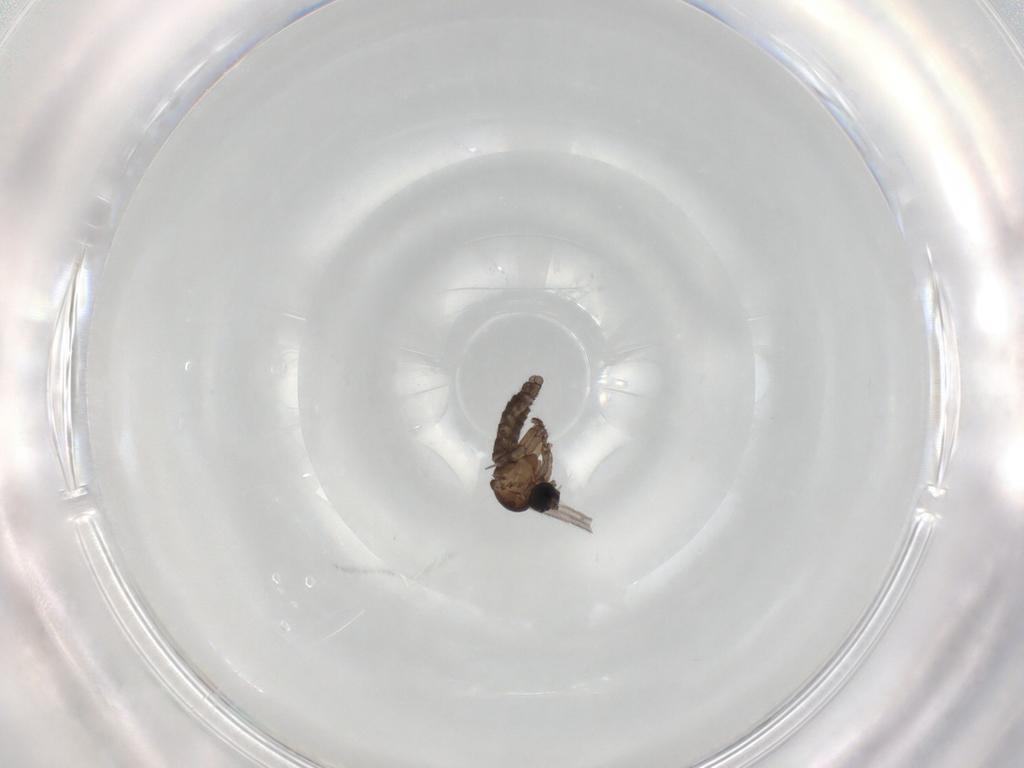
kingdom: Animalia
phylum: Arthropoda
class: Insecta
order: Diptera
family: Sciaridae
